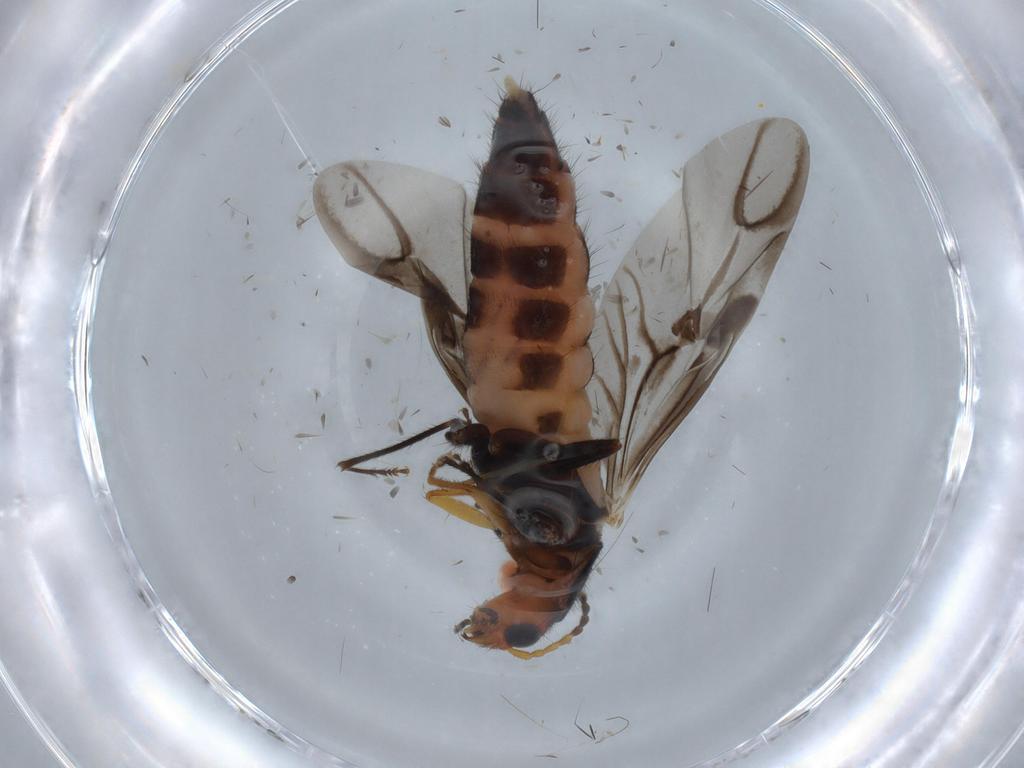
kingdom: Animalia
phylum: Arthropoda
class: Insecta
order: Coleoptera
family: Melyridae
